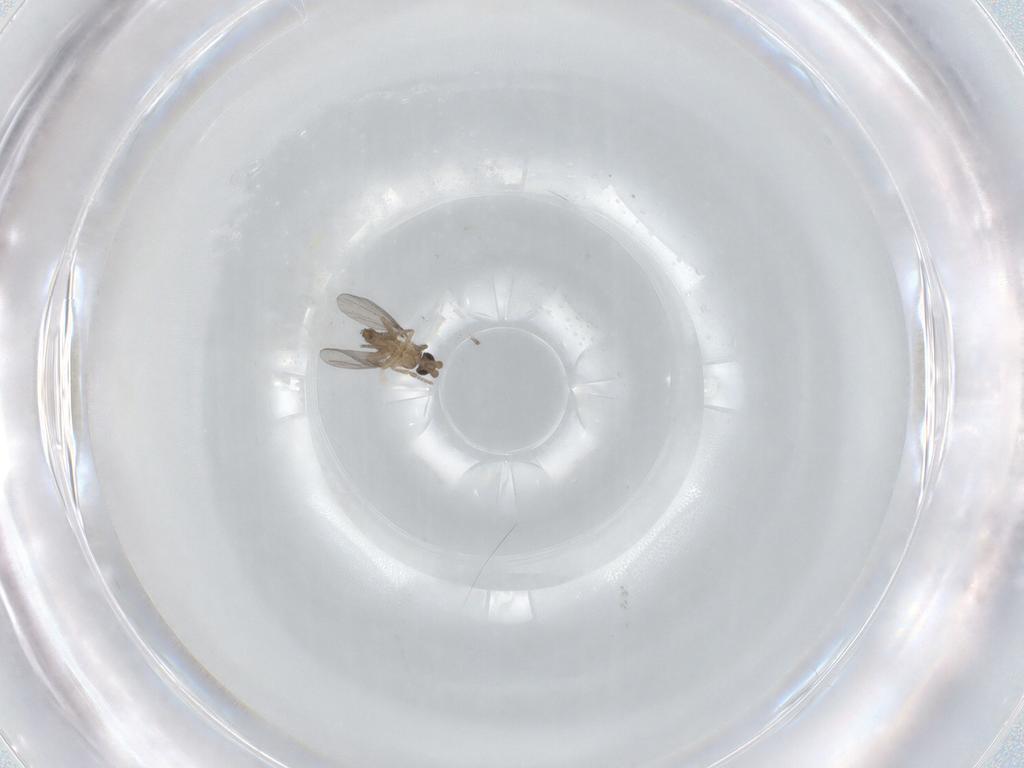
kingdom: Animalia
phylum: Arthropoda
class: Insecta
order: Diptera
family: Phoridae
